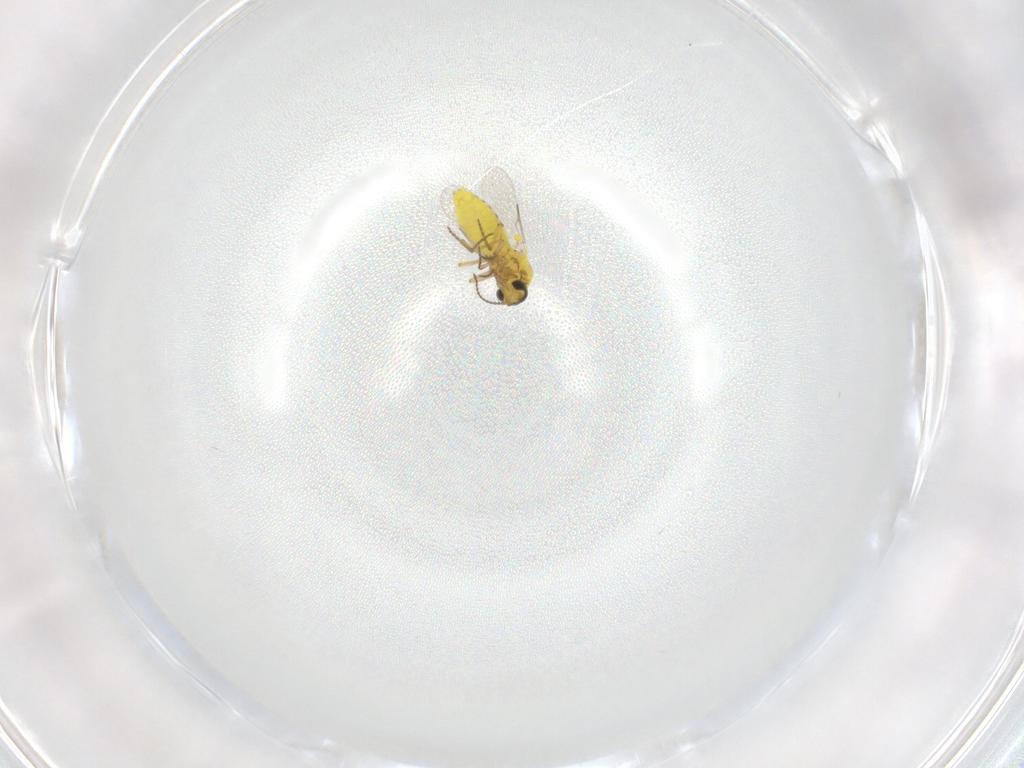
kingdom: Animalia
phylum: Arthropoda
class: Insecta
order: Diptera
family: Ceratopogonidae
